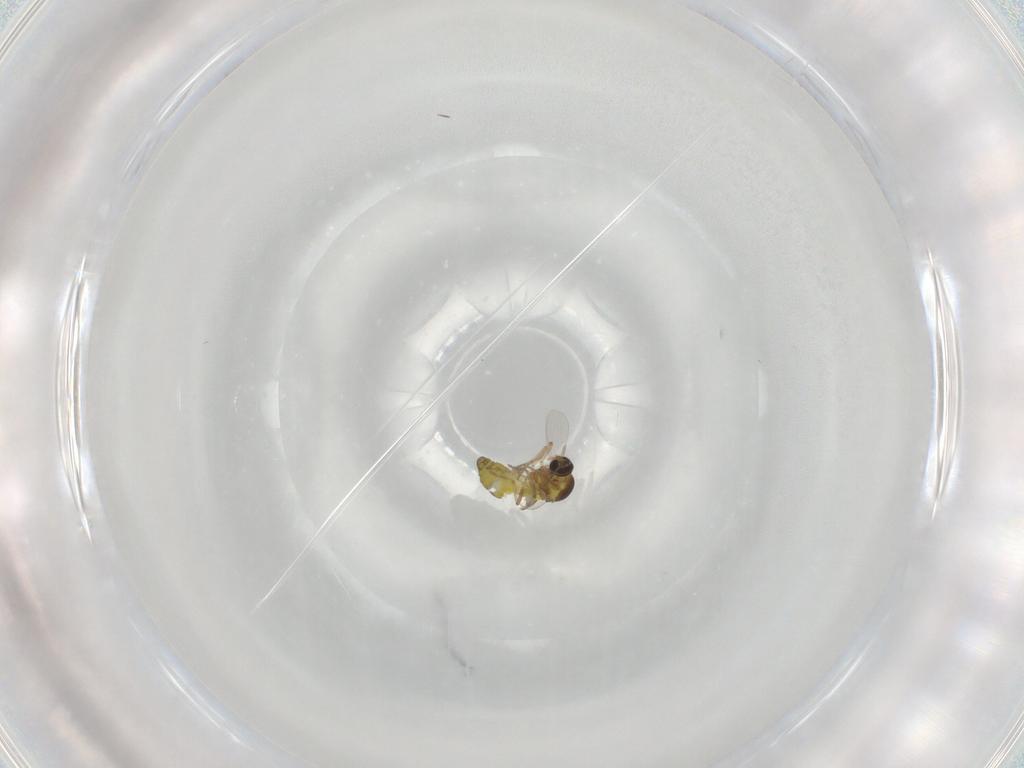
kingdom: Animalia
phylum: Arthropoda
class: Insecta
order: Diptera
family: Ceratopogonidae
